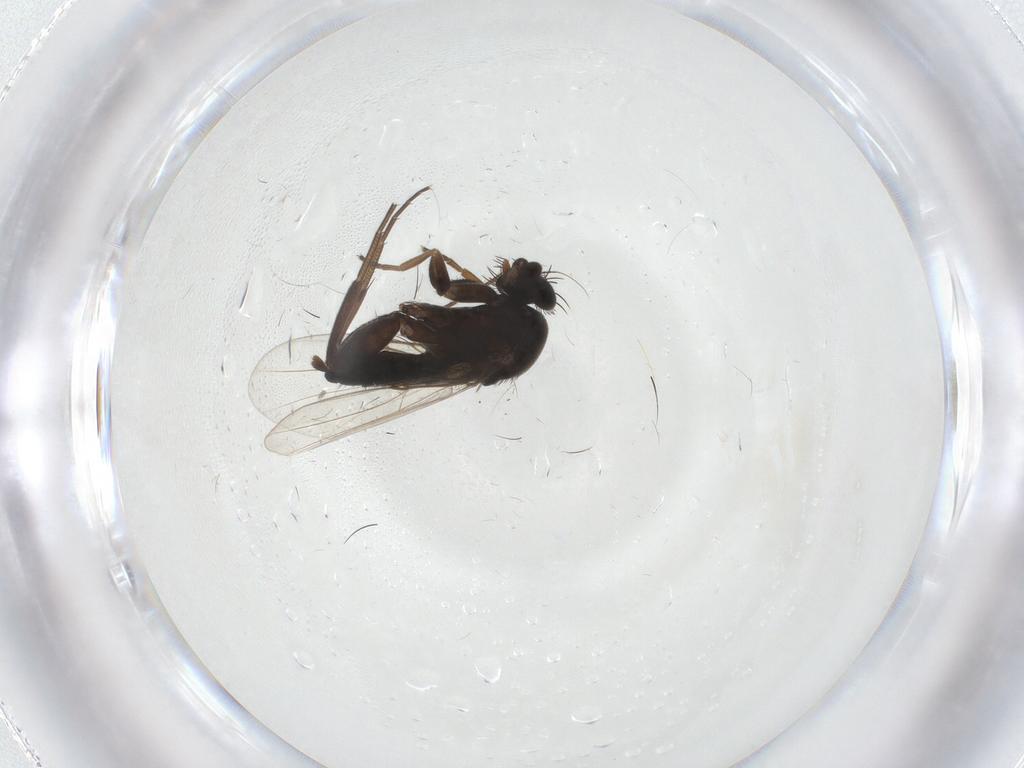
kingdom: Animalia
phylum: Arthropoda
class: Insecta
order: Diptera
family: Phoridae
